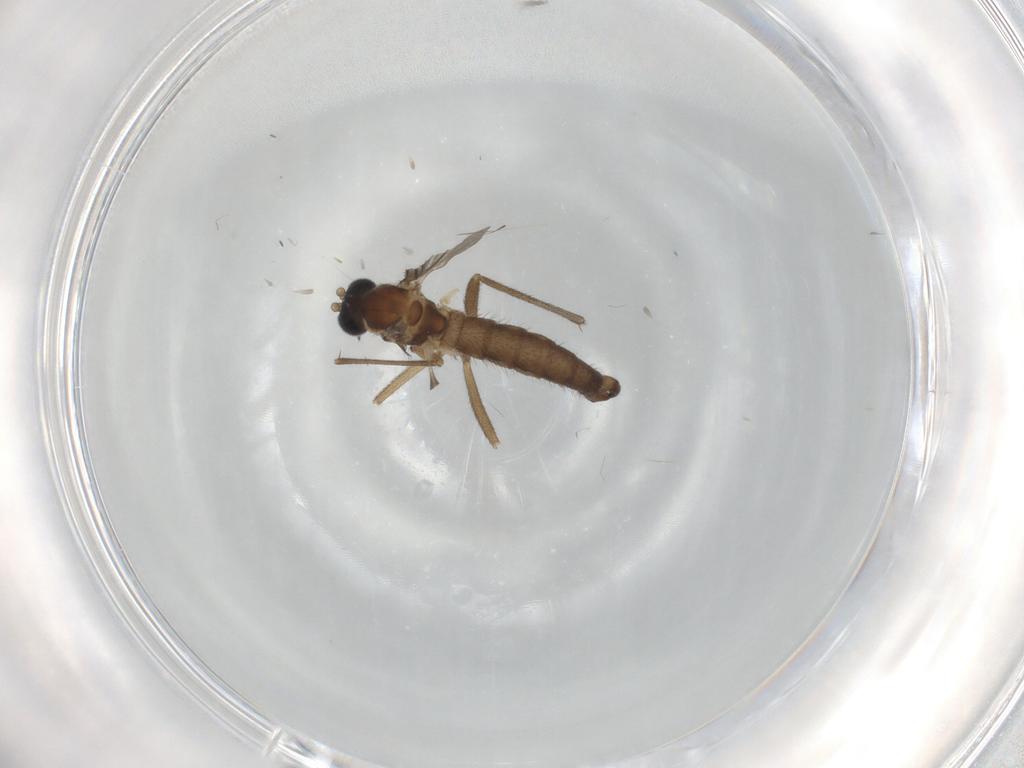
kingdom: Animalia
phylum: Arthropoda
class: Insecta
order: Diptera
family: Sciaridae
